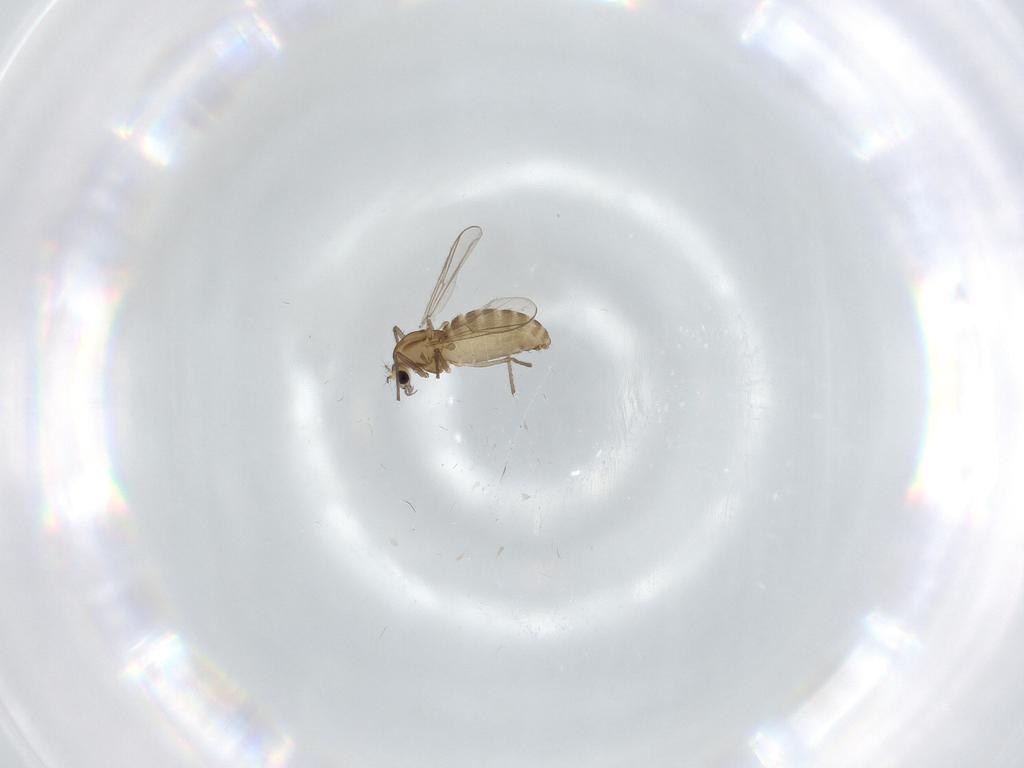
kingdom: Animalia
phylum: Arthropoda
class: Insecta
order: Diptera
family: Chironomidae
